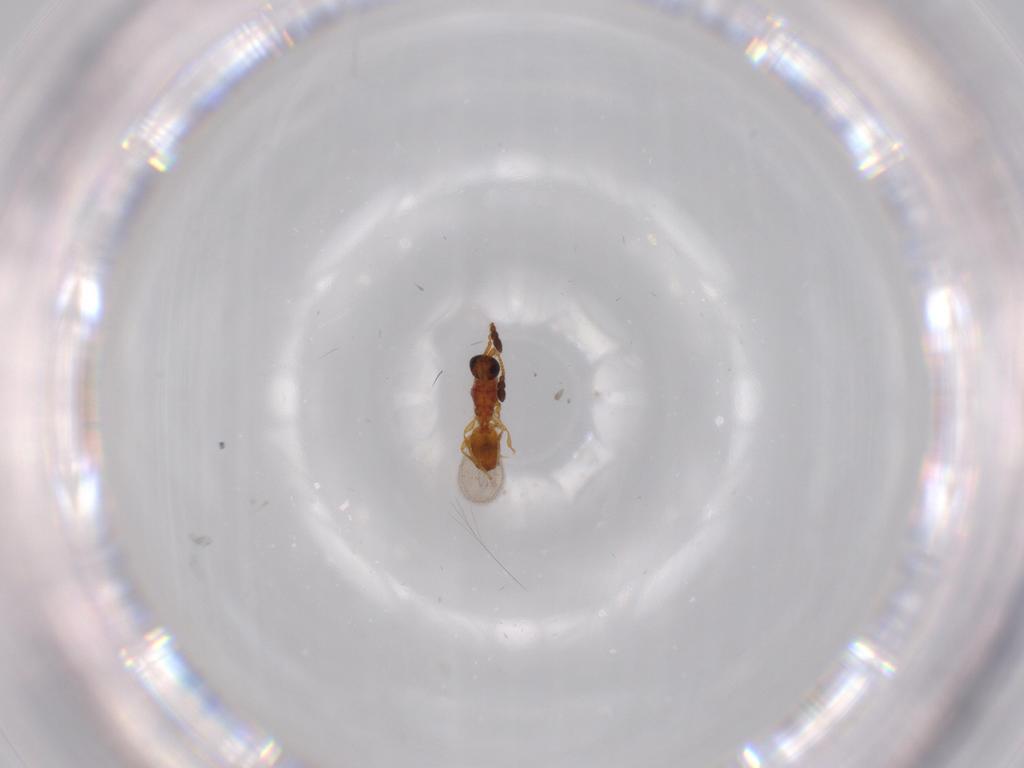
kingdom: Animalia
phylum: Arthropoda
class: Insecta
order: Hymenoptera
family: Diapriidae
